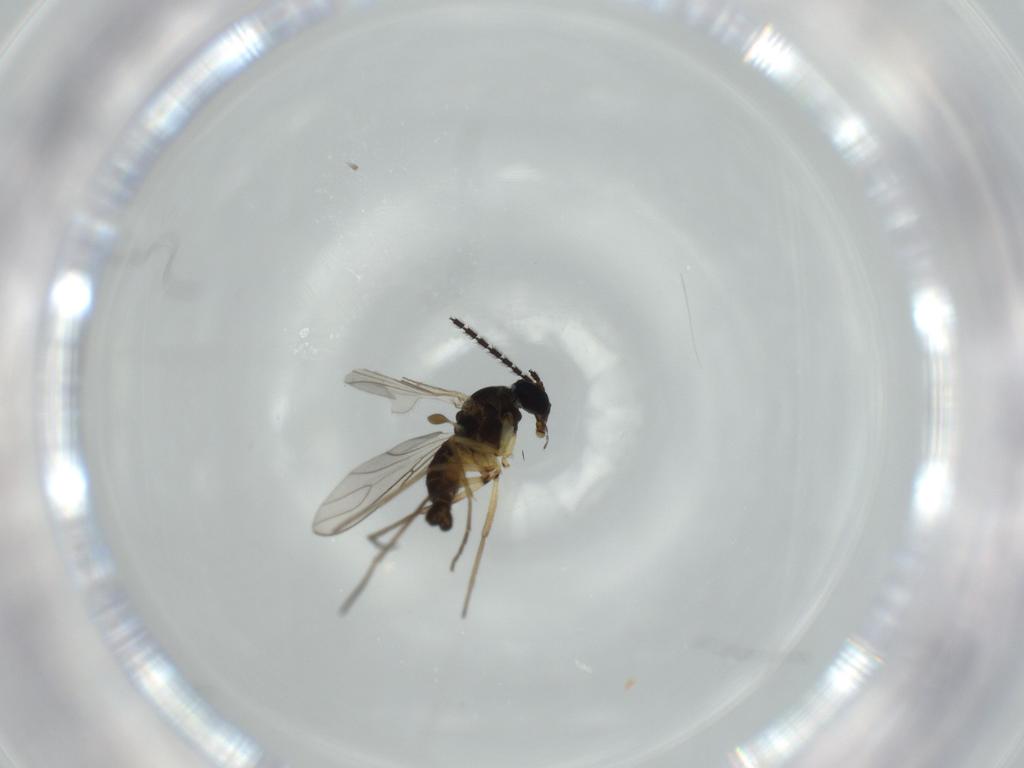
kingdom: Animalia
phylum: Arthropoda
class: Insecta
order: Diptera
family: Sciaridae
